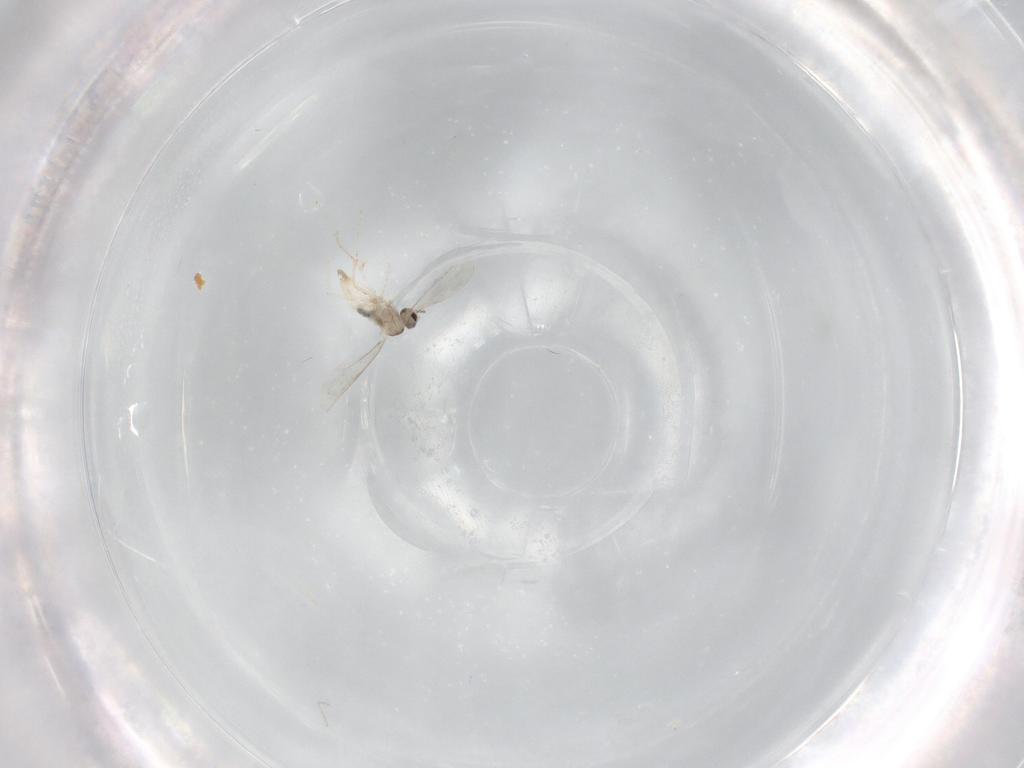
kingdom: Animalia
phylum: Arthropoda
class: Insecta
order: Diptera
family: Cecidomyiidae
